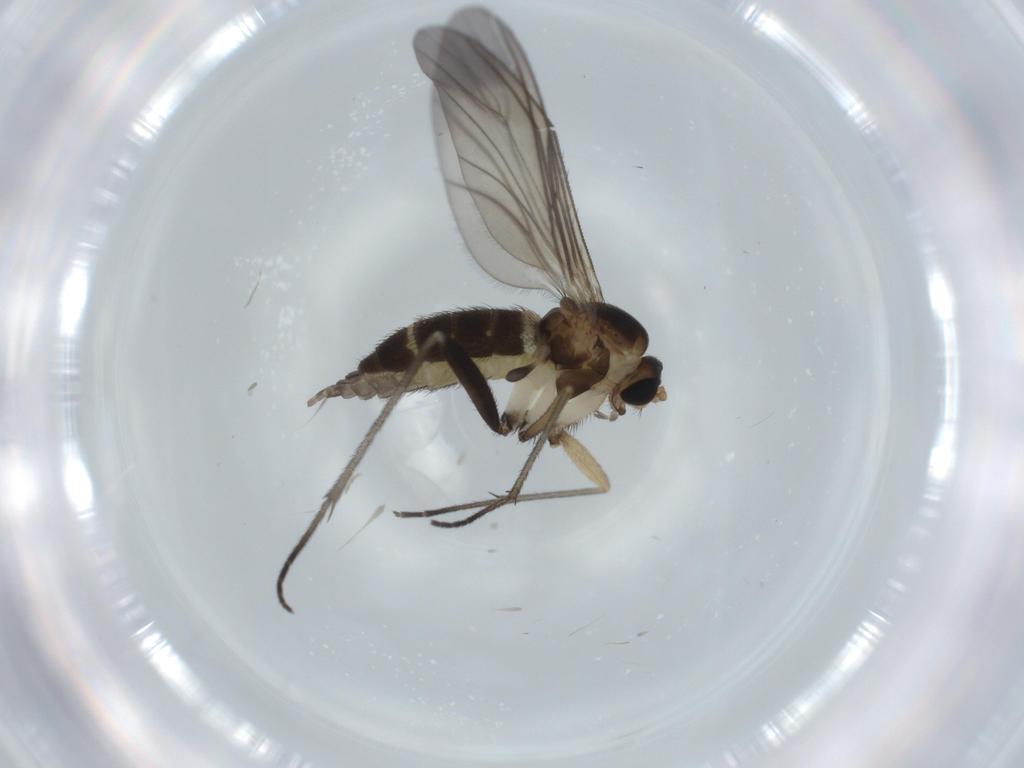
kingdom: Animalia
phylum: Arthropoda
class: Insecta
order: Diptera
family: Sciaridae
